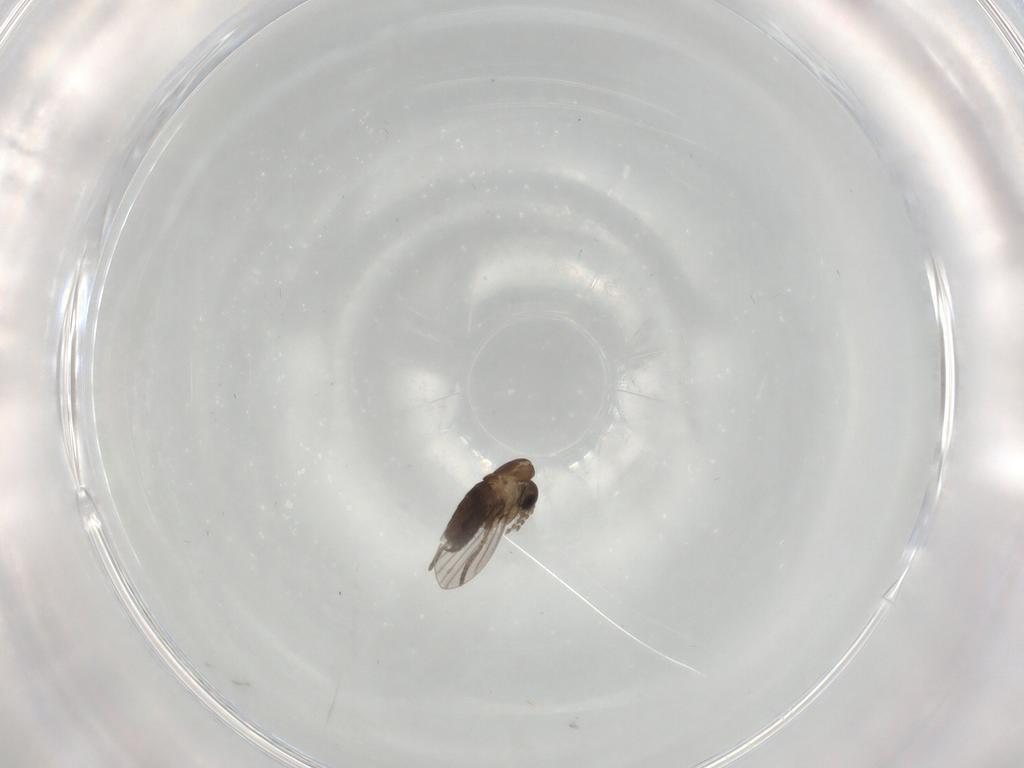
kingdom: Animalia
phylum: Arthropoda
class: Insecta
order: Diptera
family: Psychodidae
